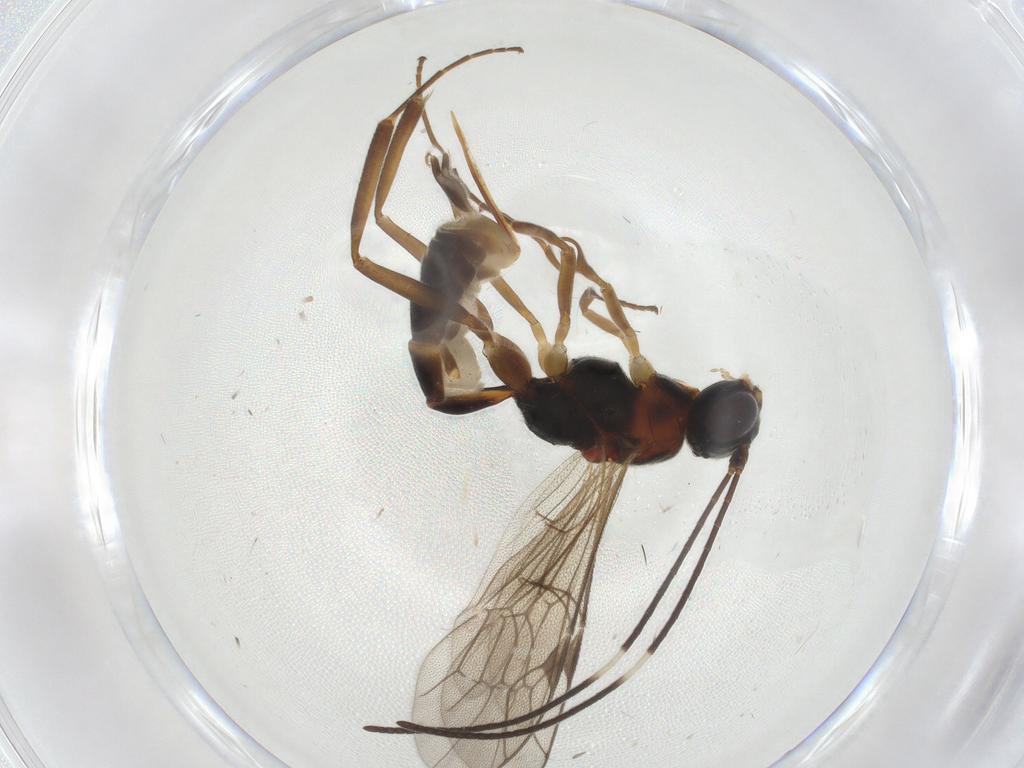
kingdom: Animalia
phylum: Arthropoda
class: Insecta
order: Hymenoptera
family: Ichneumonidae
